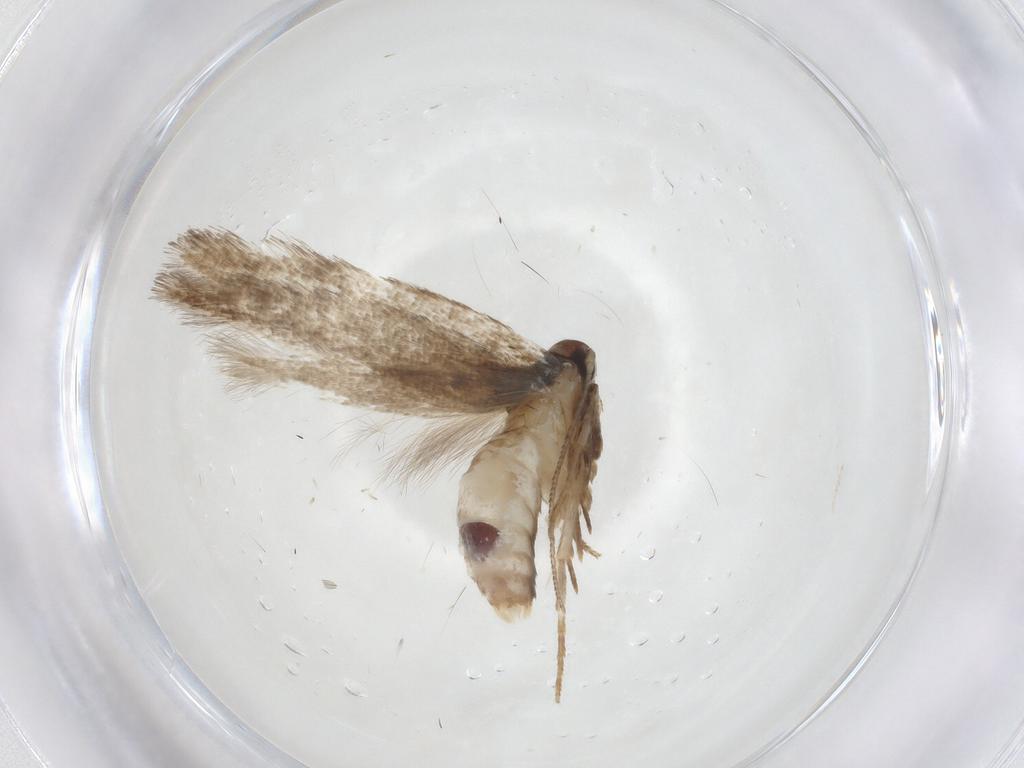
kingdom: Animalia
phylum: Arthropoda
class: Insecta
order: Lepidoptera
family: Gelechiidae
